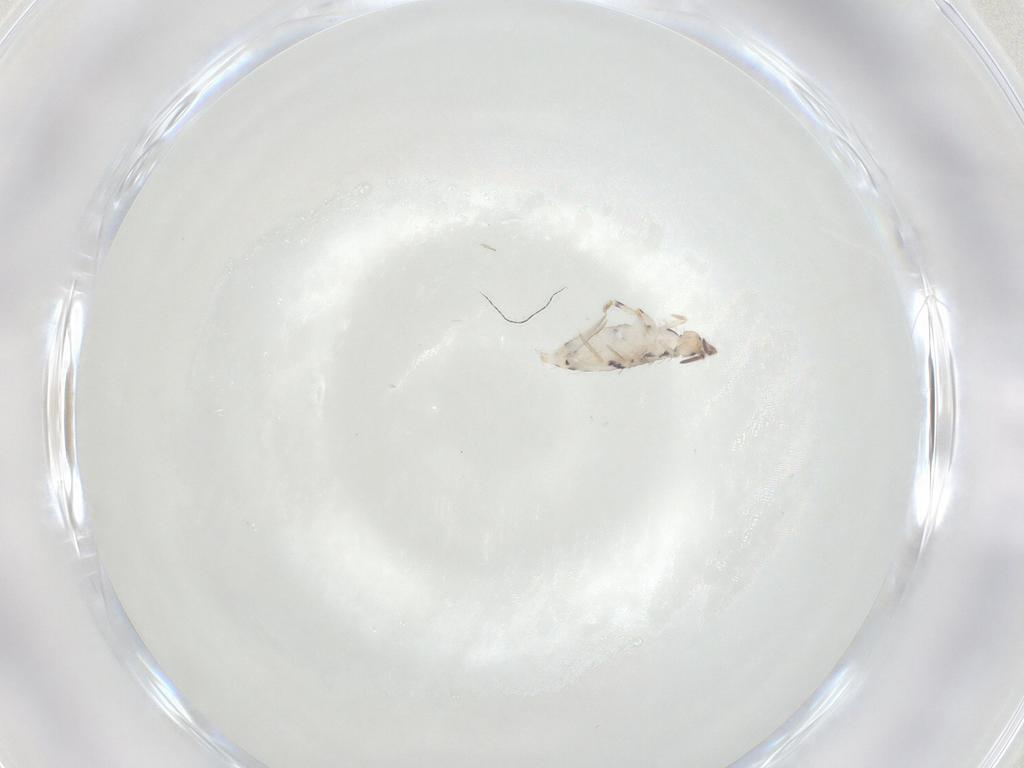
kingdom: Animalia
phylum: Arthropoda
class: Collembola
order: Entomobryomorpha
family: Entomobryidae
